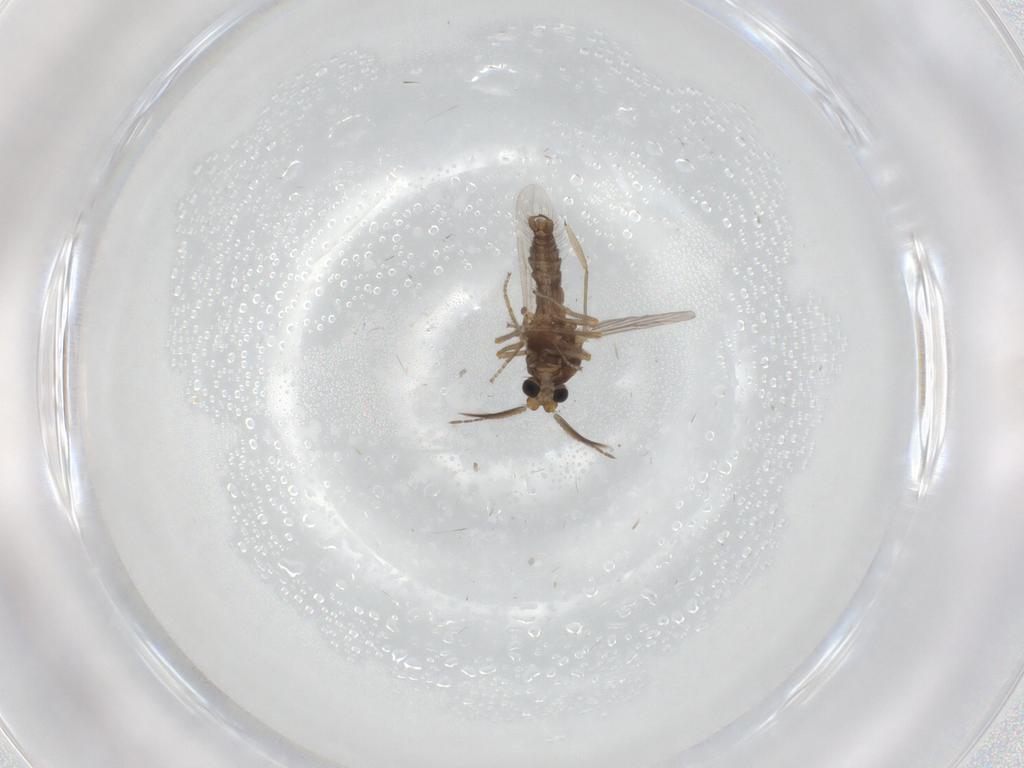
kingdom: Animalia
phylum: Arthropoda
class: Insecta
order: Diptera
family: Ceratopogonidae
